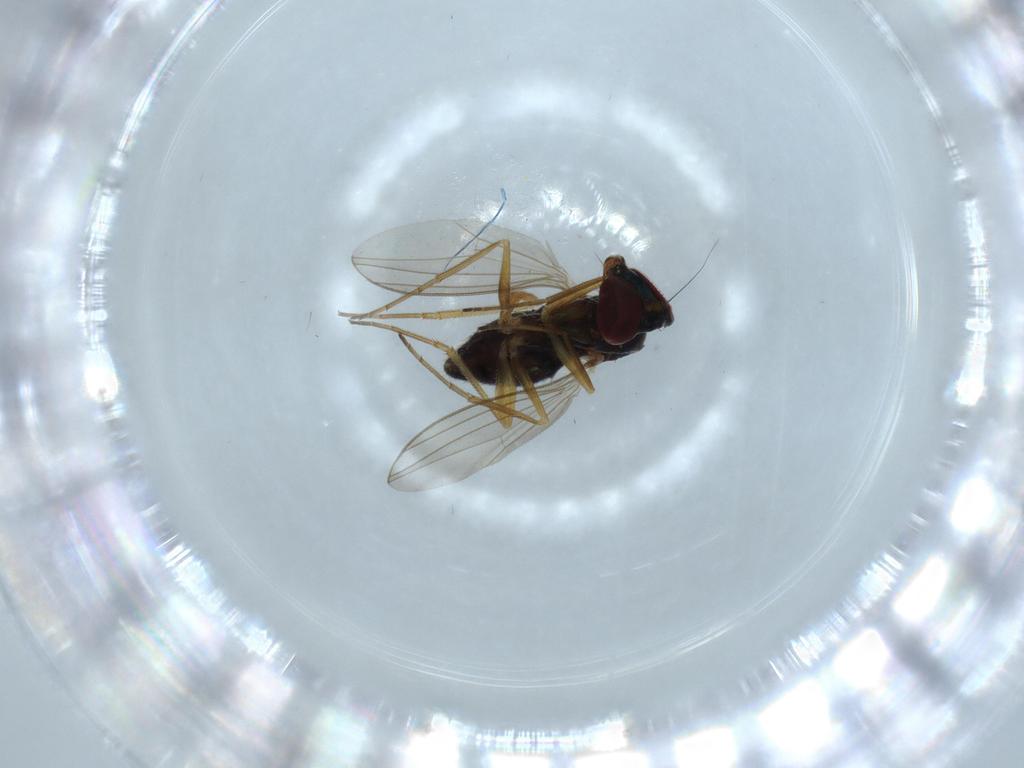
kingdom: Animalia
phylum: Arthropoda
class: Insecta
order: Diptera
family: Dolichopodidae
